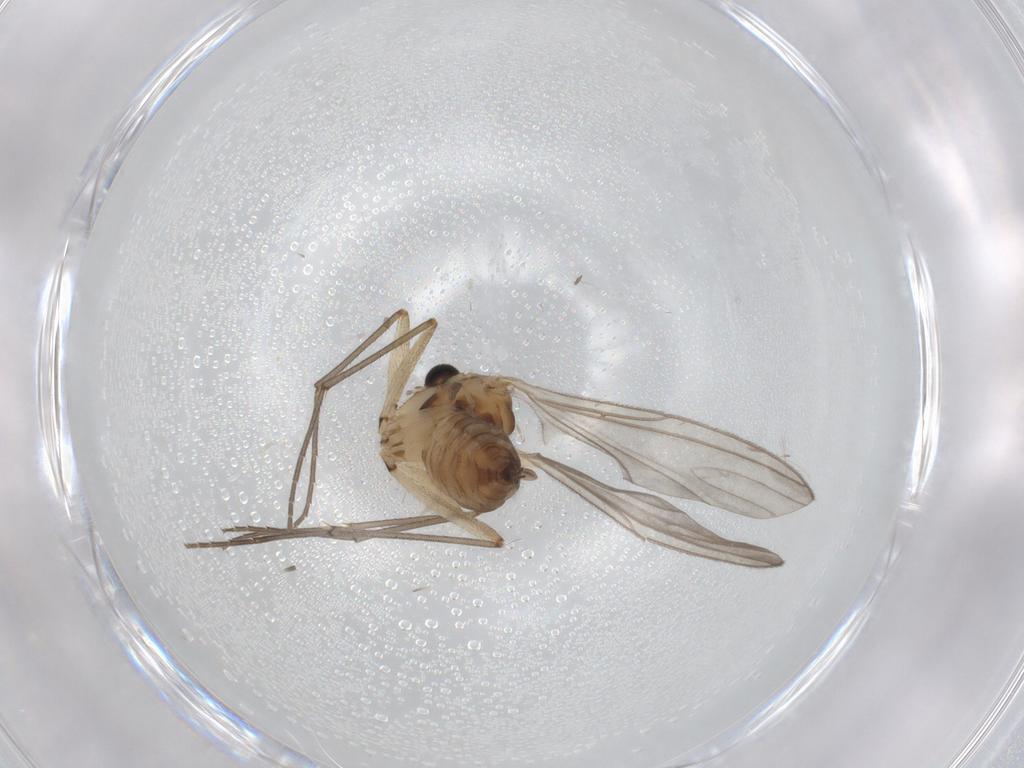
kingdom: Animalia
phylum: Arthropoda
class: Insecta
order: Diptera
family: Sciaridae
